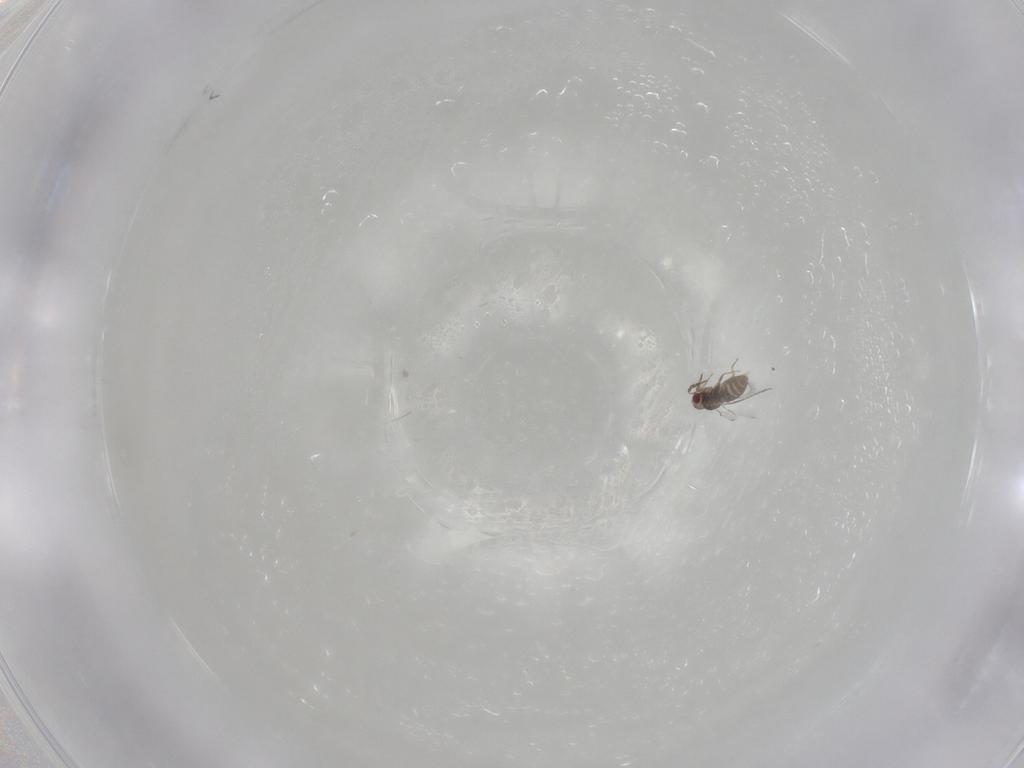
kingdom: Animalia
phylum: Arthropoda
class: Insecta
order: Hymenoptera
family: Trichogrammatidae
